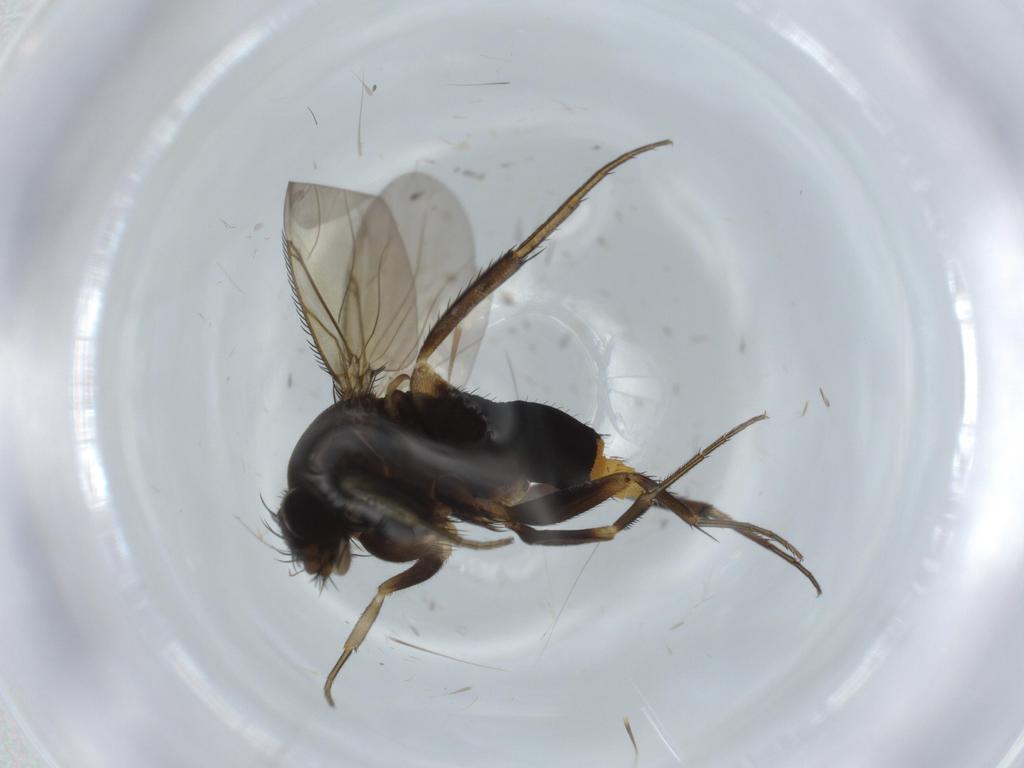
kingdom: Animalia
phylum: Arthropoda
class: Insecta
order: Diptera
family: Phoridae
